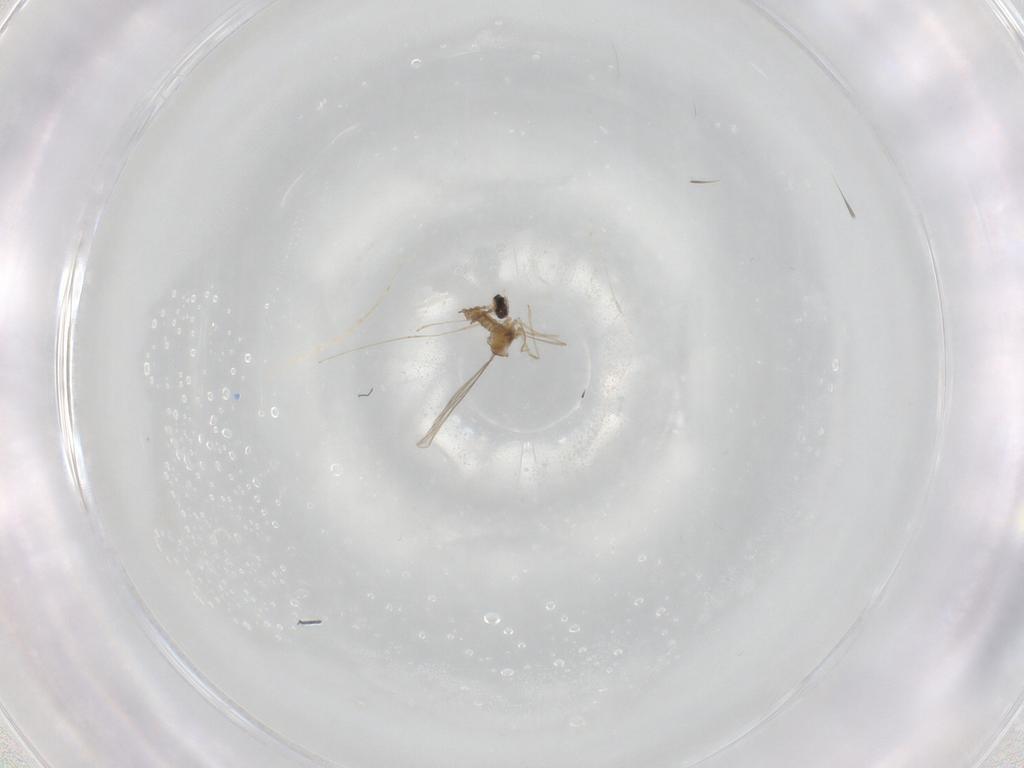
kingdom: Animalia
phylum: Arthropoda
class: Insecta
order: Diptera
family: Cecidomyiidae
